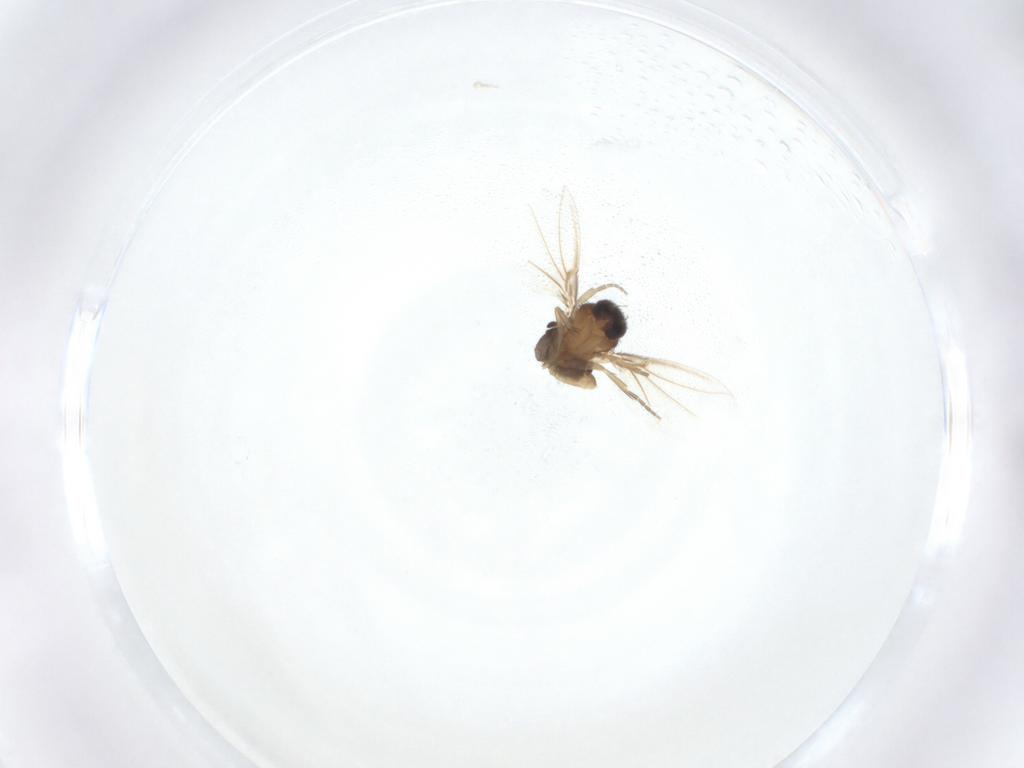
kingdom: Animalia
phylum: Arthropoda
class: Insecta
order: Diptera
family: Phoridae
